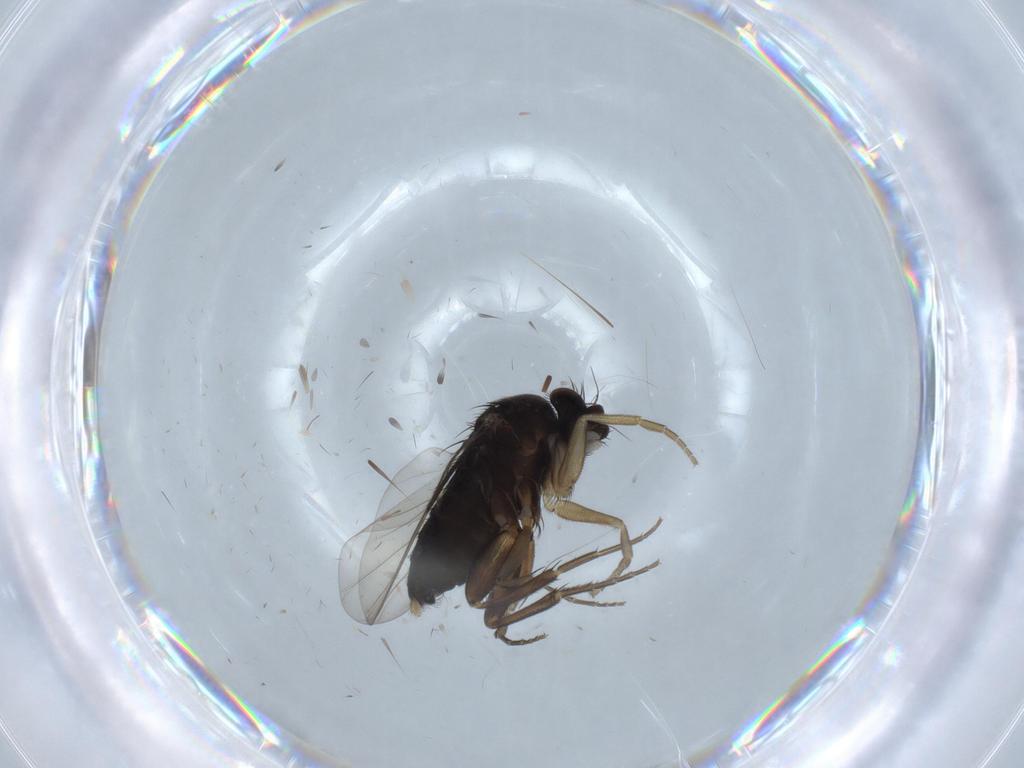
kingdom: Animalia
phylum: Arthropoda
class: Insecta
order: Diptera
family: Phoridae
